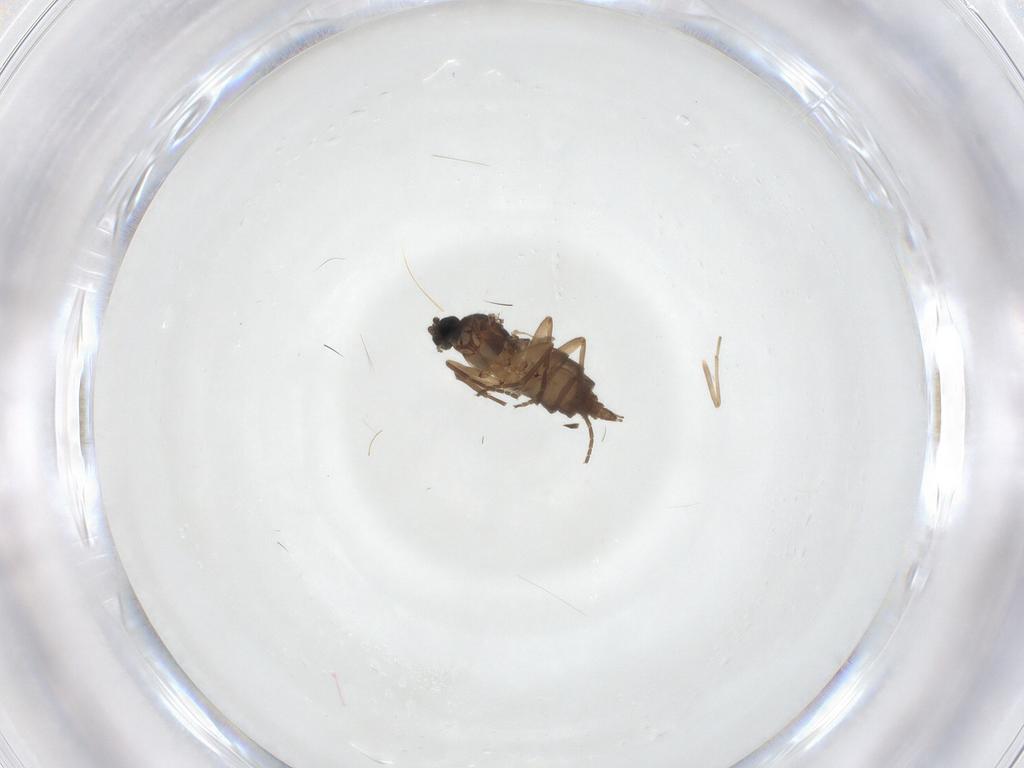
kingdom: Animalia
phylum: Arthropoda
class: Insecta
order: Diptera
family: Sciaridae
